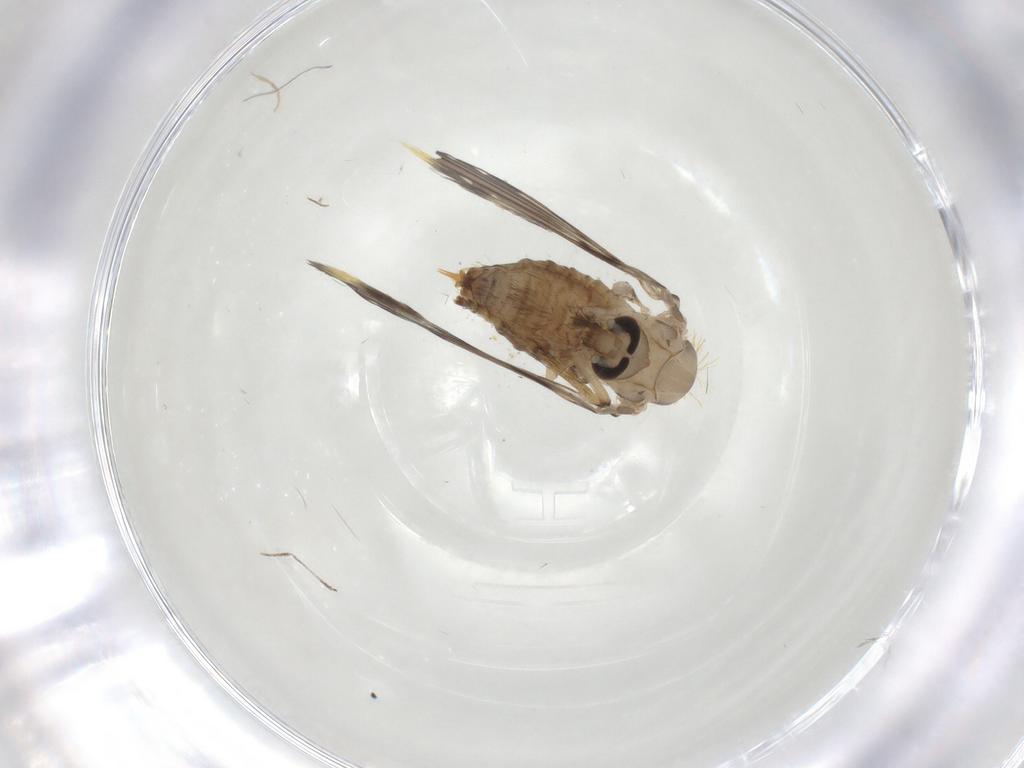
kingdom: Animalia
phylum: Arthropoda
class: Insecta
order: Diptera
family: Psychodidae
